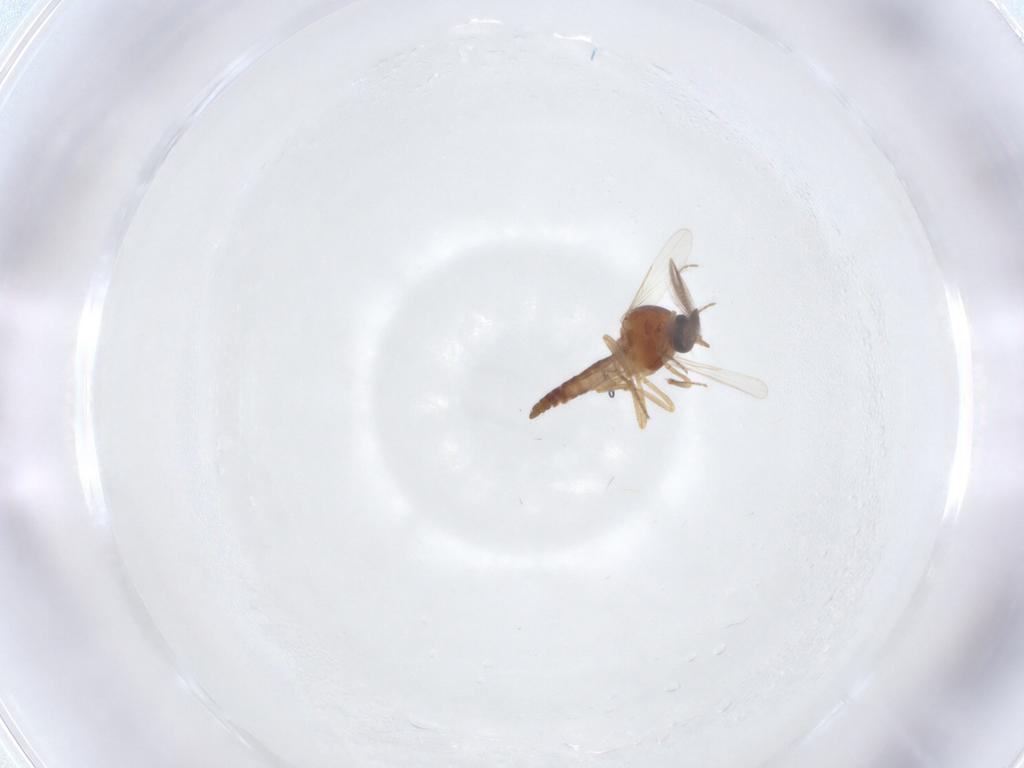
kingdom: Animalia
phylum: Arthropoda
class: Insecta
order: Diptera
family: Ceratopogonidae
